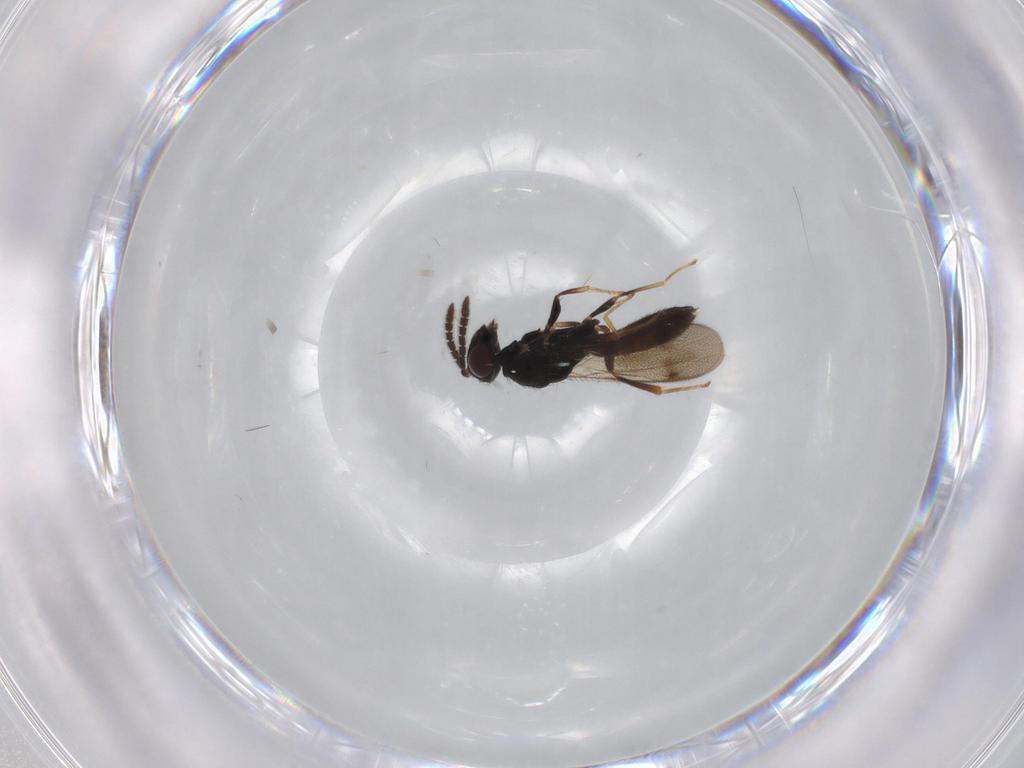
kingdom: Animalia
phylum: Arthropoda
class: Insecta
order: Hymenoptera
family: Pteromalidae
